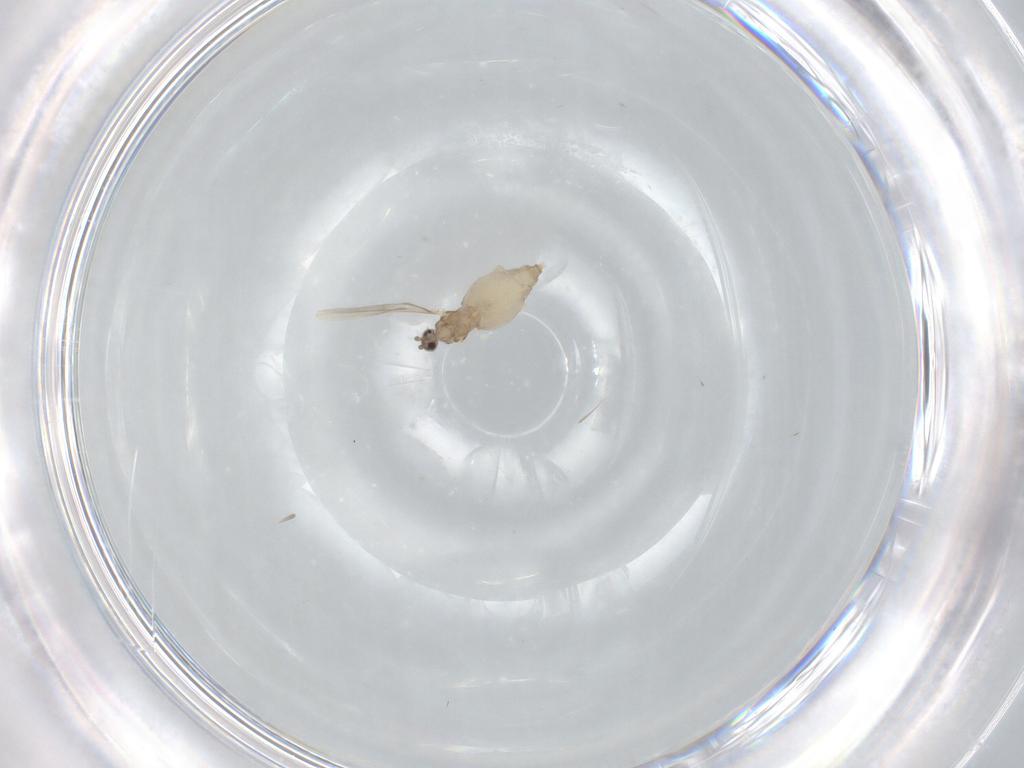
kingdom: Animalia
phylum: Arthropoda
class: Insecta
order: Diptera
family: Cecidomyiidae
